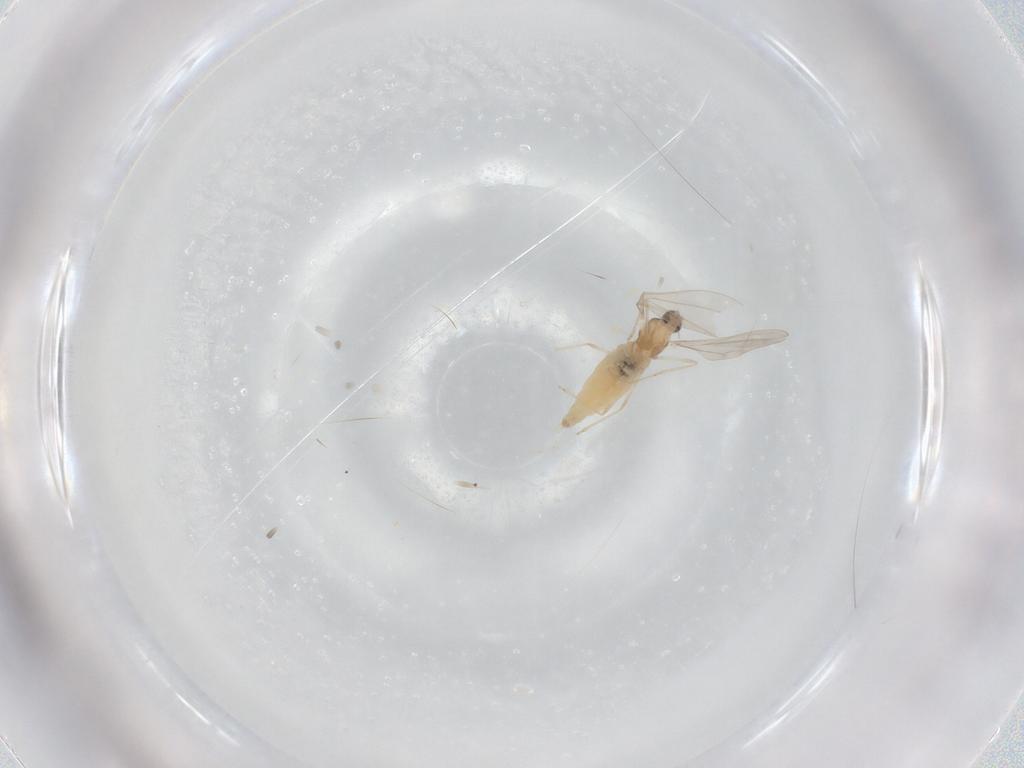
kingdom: Animalia
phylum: Arthropoda
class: Insecta
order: Diptera
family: Cecidomyiidae
